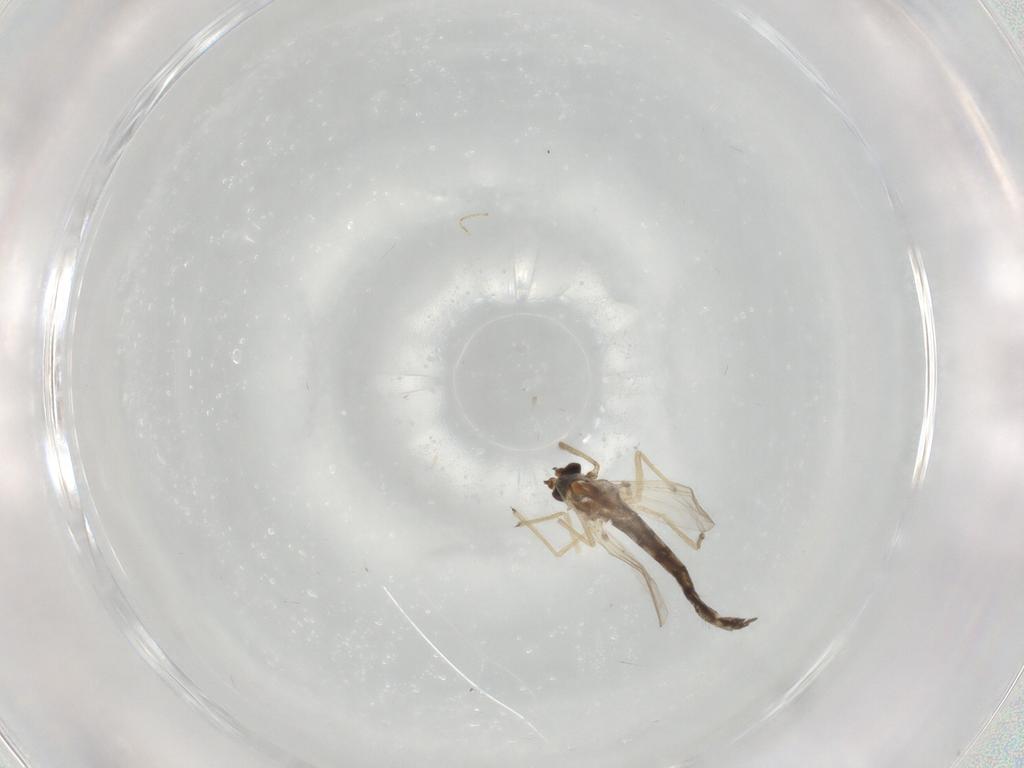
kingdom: Animalia
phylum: Arthropoda
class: Insecta
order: Diptera
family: Chironomidae
